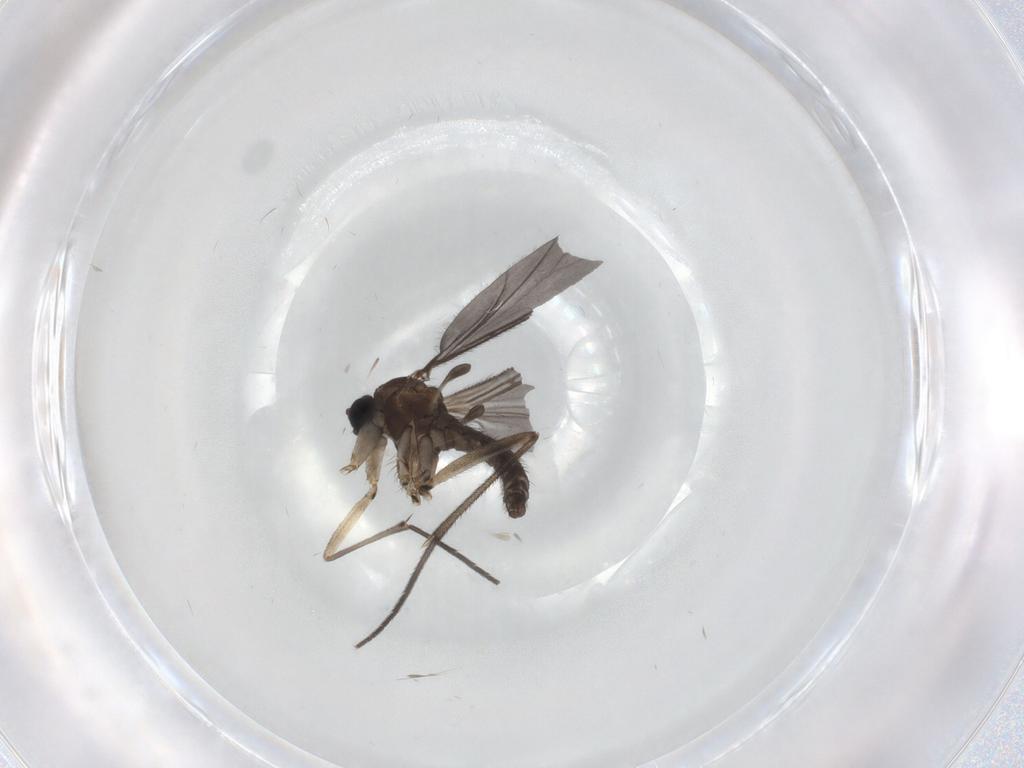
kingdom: Animalia
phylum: Arthropoda
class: Insecta
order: Diptera
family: Sciaridae
